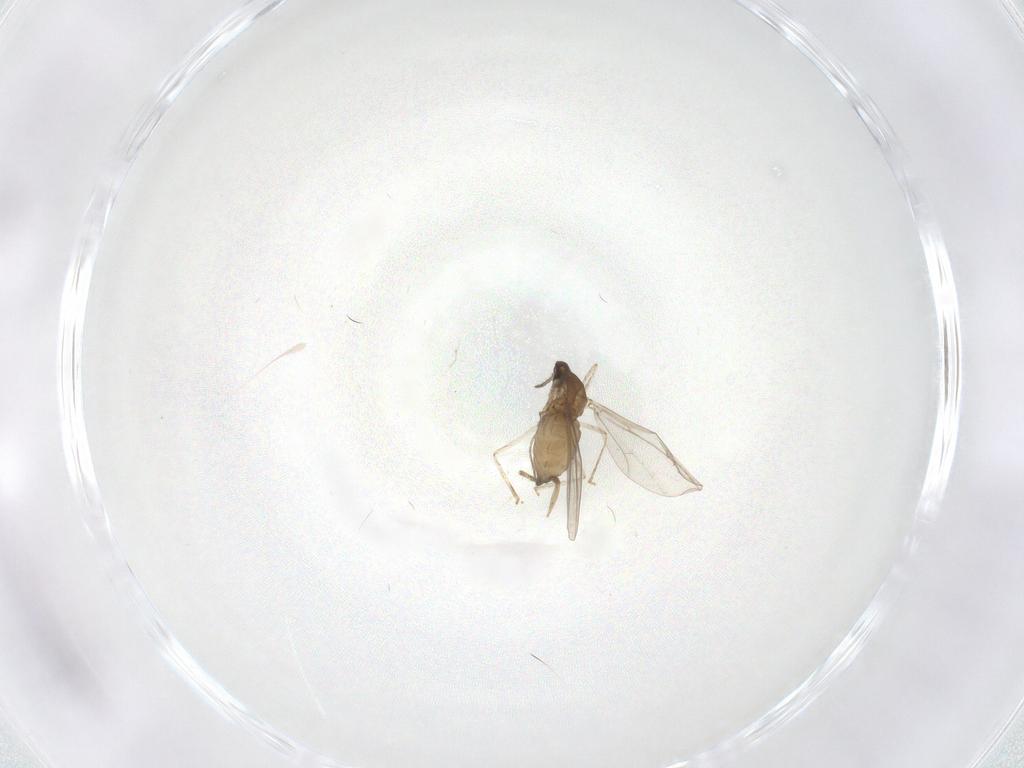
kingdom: Animalia
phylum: Arthropoda
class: Insecta
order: Diptera
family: Cecidomyiidae
